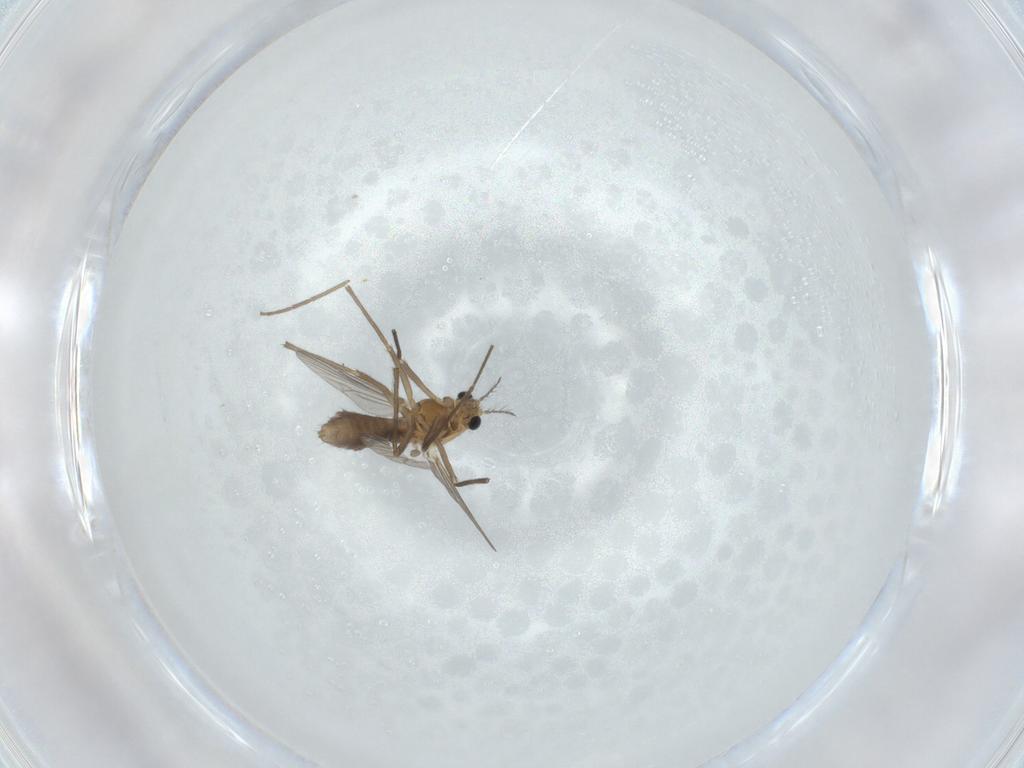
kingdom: Animalia
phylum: Arthropoda
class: Insecta
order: Diptera
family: Chironomidae
